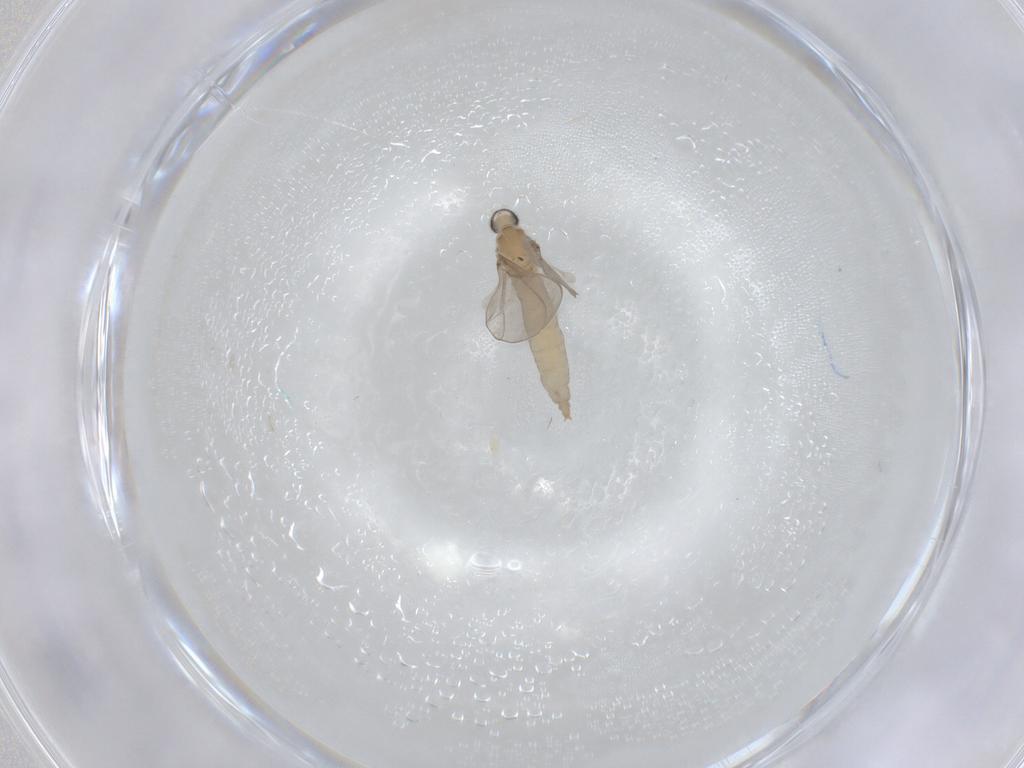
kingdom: Animalia
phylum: Arthropoda
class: Insecta
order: Diptera
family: Cecidomyiidae
